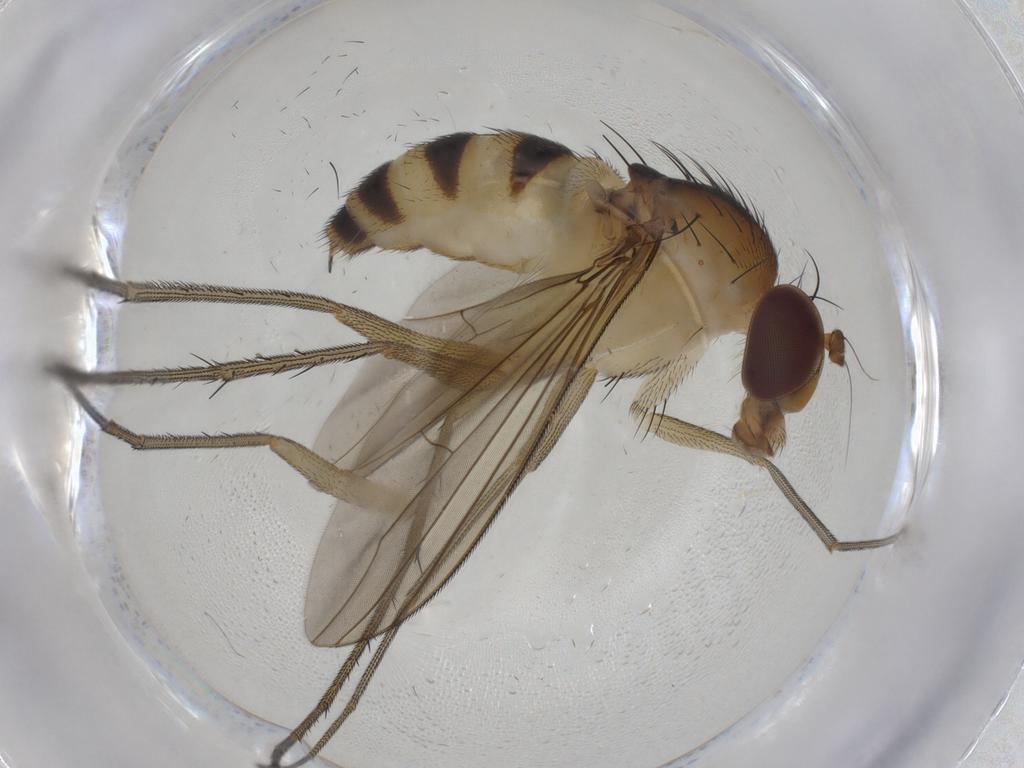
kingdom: Animalia
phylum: Arthropoda
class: Insecta
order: Diptera
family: Dolichopodidae
